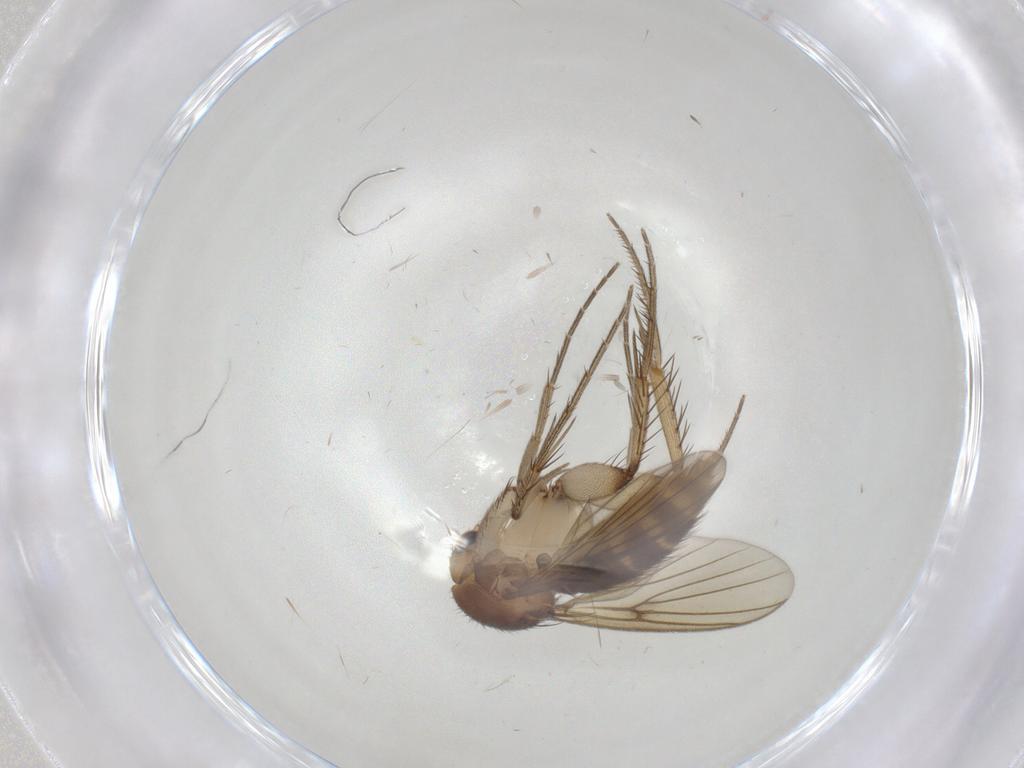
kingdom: Animalia
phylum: Arthropoda
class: Insecta
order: Diptera
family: Mycetophilidae
